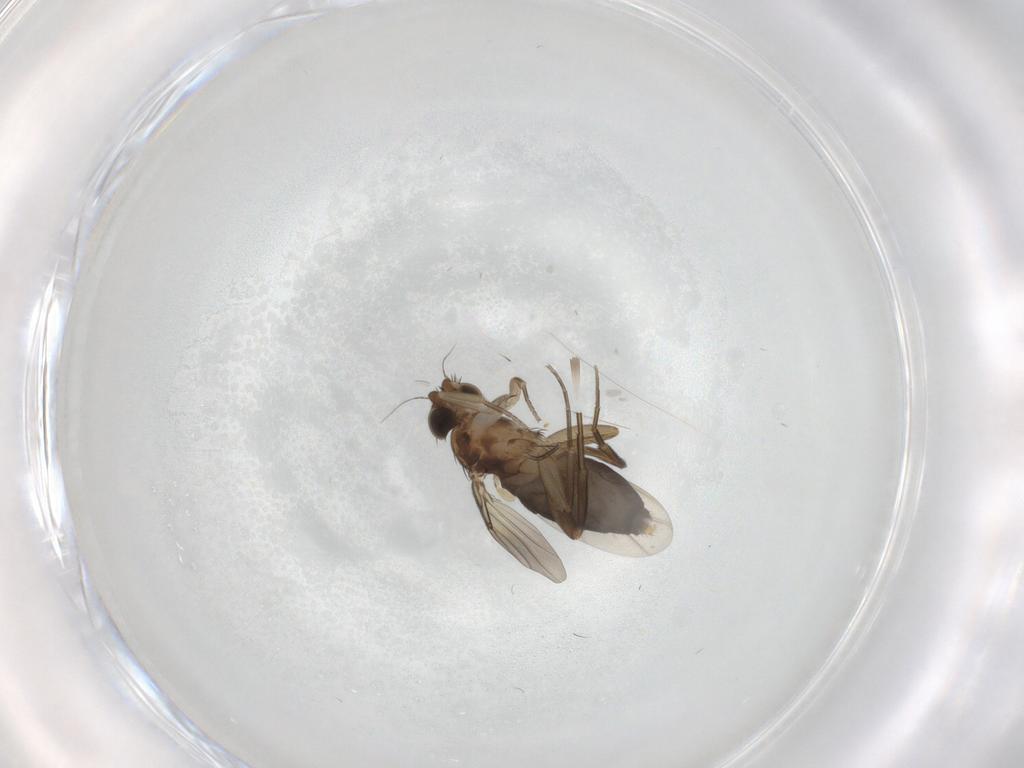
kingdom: Animalia
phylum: Arthropoda
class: Insecta
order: Diptera
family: Phoridae
